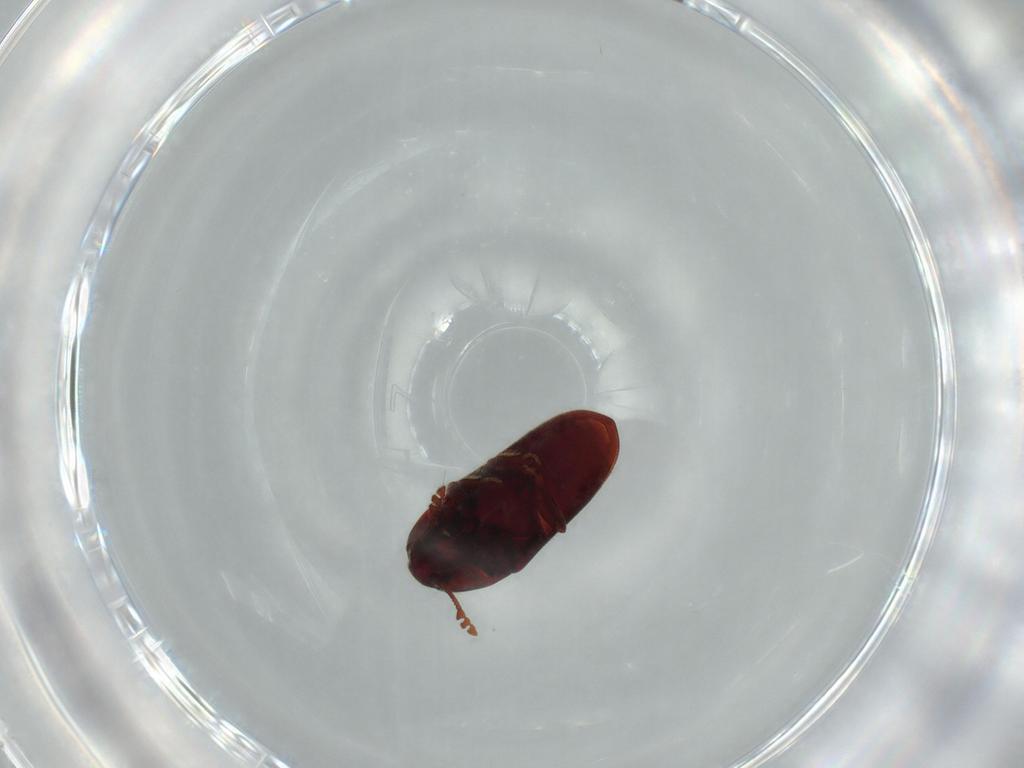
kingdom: Animalia
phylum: Arthropoda
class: Insecta
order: Coleoptera
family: Throscidae
